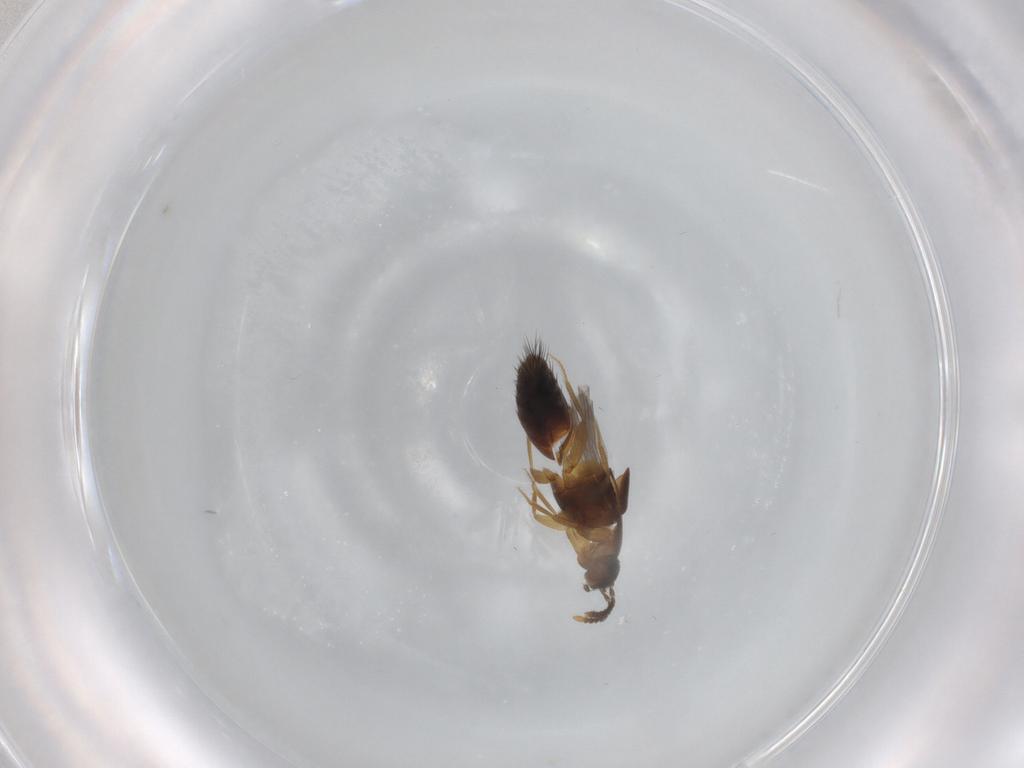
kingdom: Animalia
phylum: Arthropoda
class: Insecta
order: Coleoptera
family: Staphylinidae
